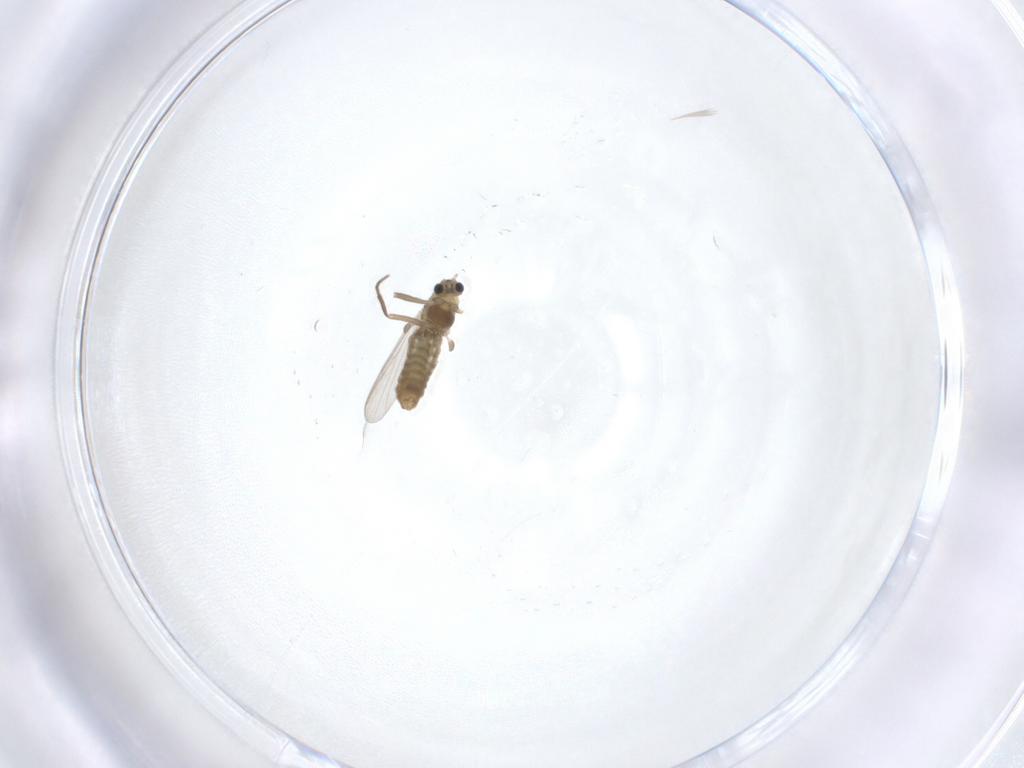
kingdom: Animalia
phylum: Arthropoda
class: Insecta
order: Diptera
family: Chironomidae
